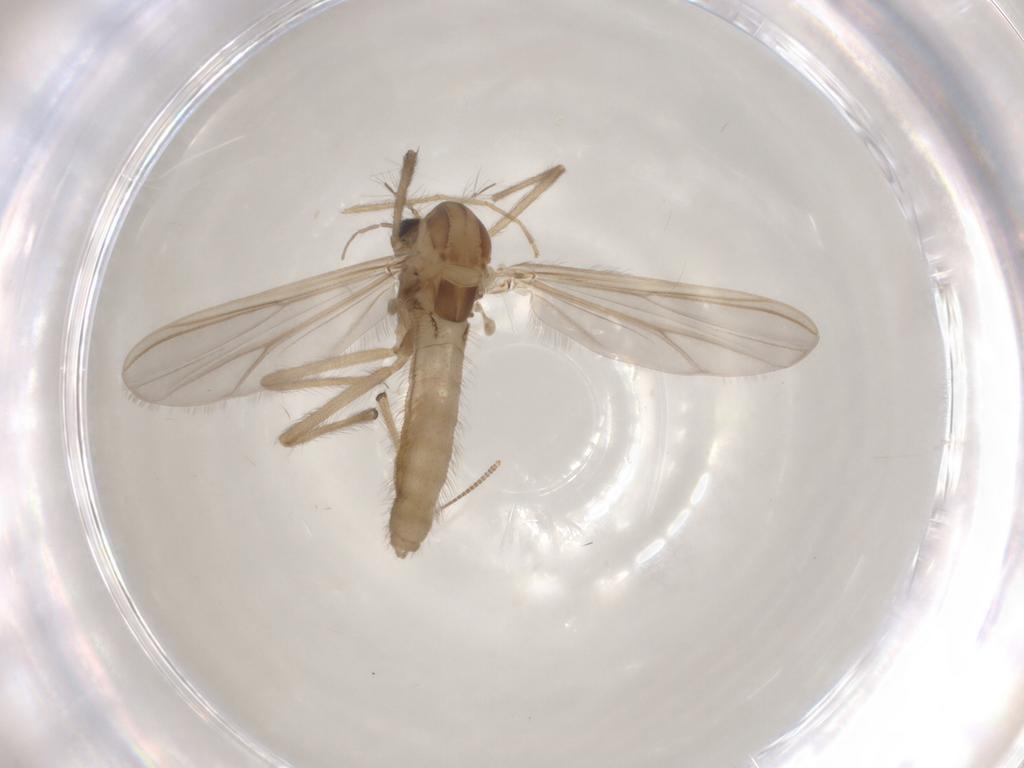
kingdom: Animalia
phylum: Arthropoda
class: Insecta
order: Diptera
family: Chironomidae
